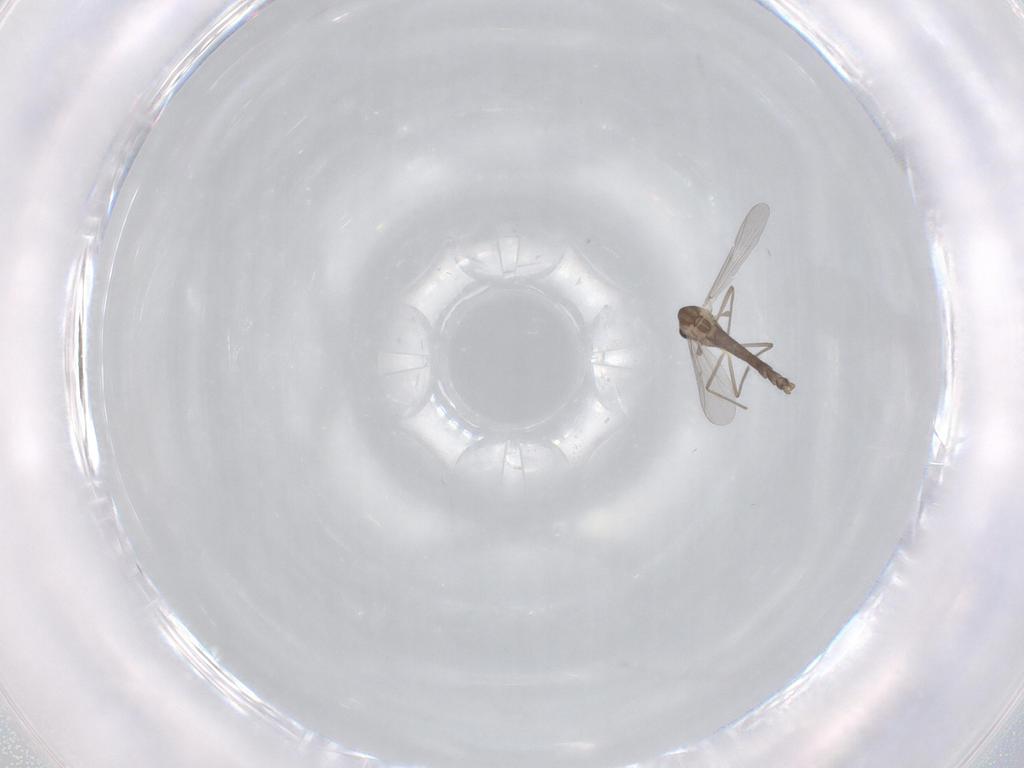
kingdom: Animalia
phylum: Arthropoda
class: Insecta
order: Diptera
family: Chironomidae
